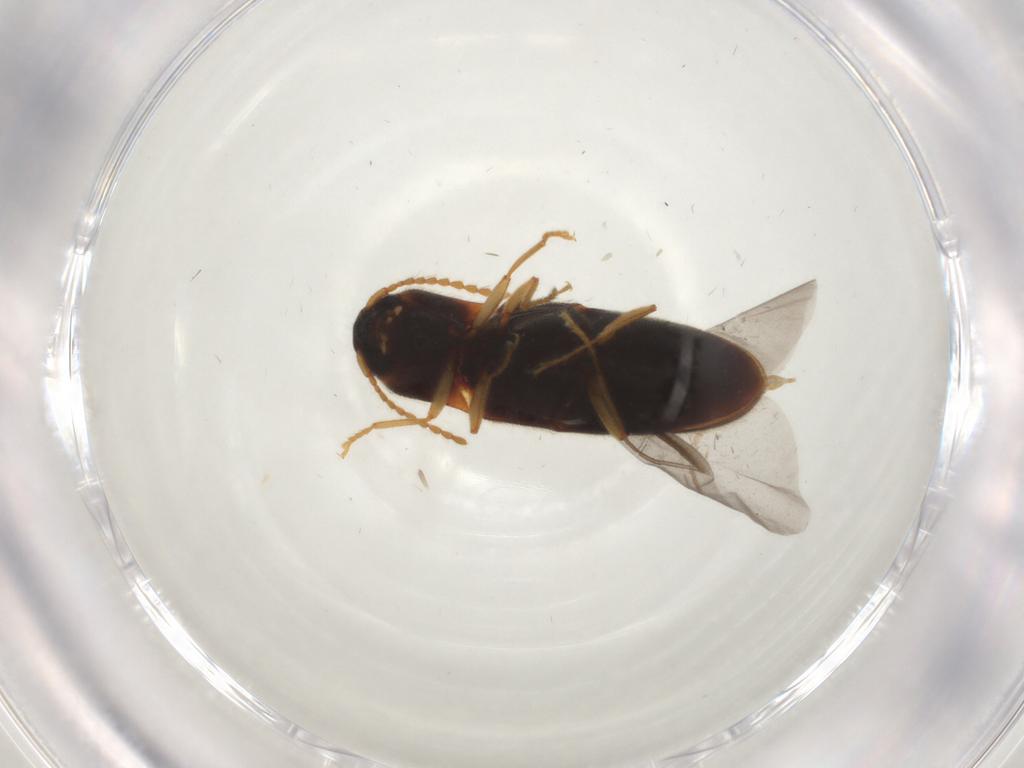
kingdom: Animalia
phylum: Arthropoda
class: Insecta
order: Coleoptera
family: Elateridae
